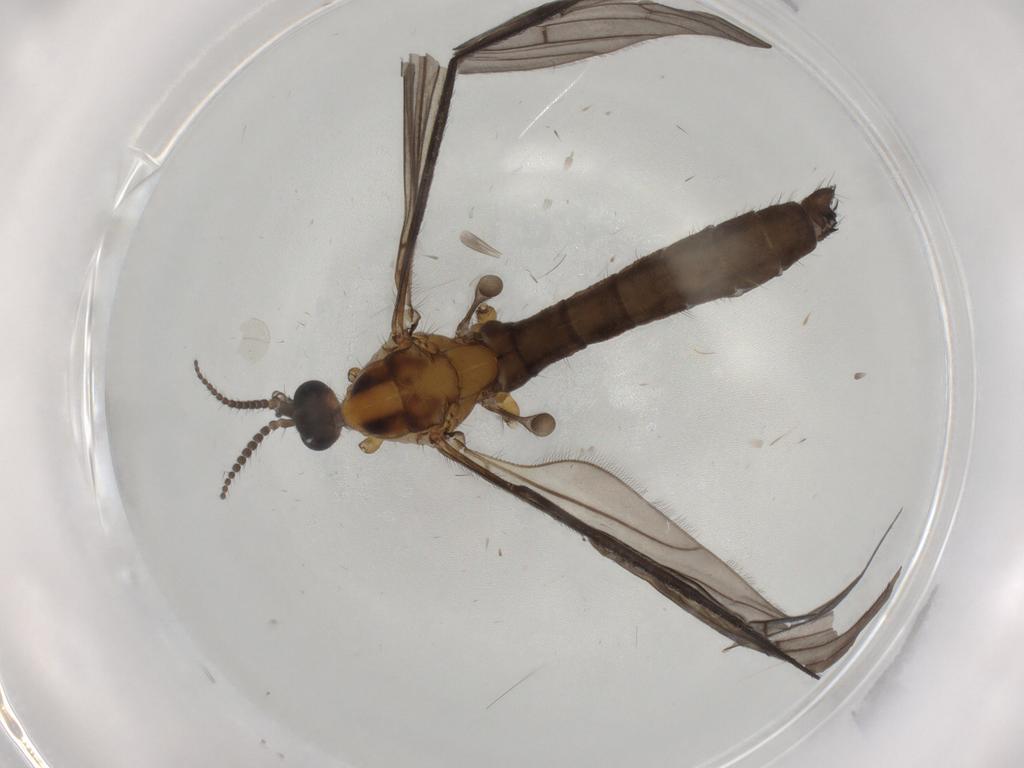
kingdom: Animalia
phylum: Arthropoda
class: Insecta
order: Diptera
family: Limoniidae
